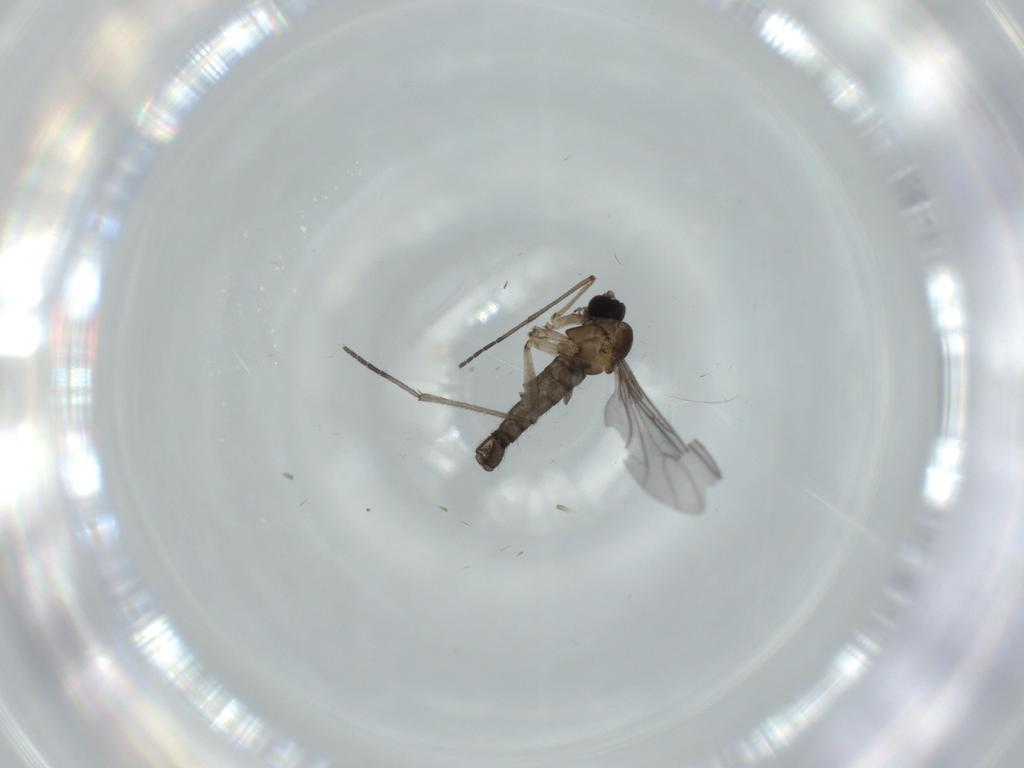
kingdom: Animalia
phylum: Arthropoda
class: Insecta
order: Diptera
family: Sciaridae
